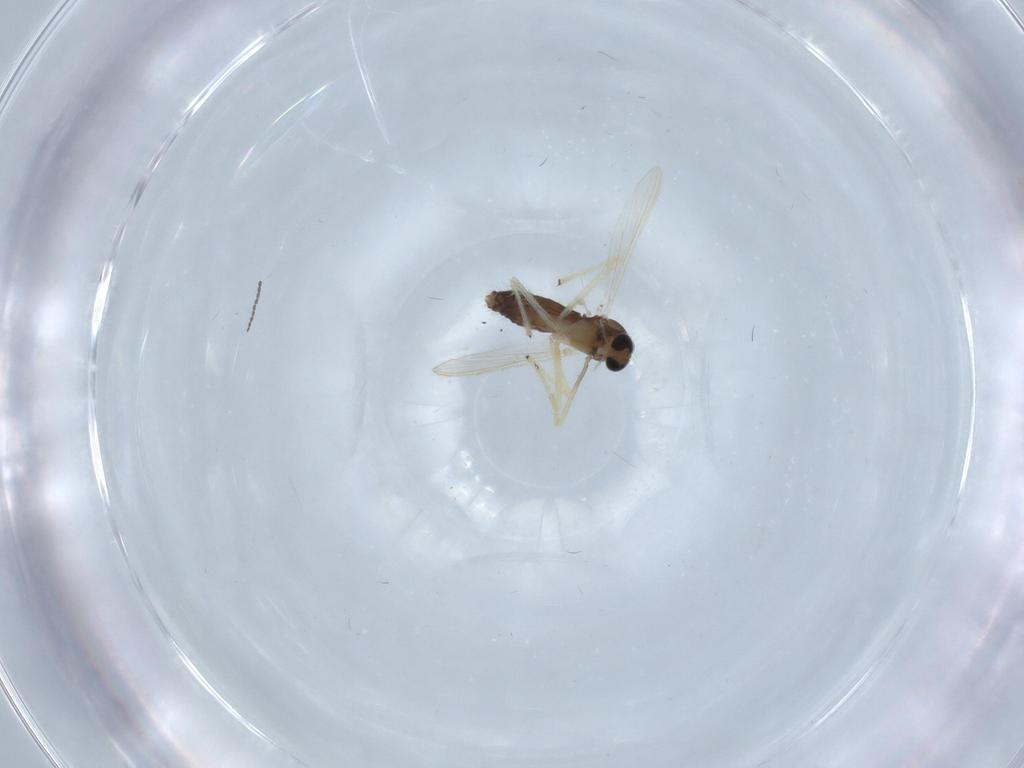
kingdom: Animalia
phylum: Arthropoda
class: Insecta
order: Diptera
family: Chironomidae
